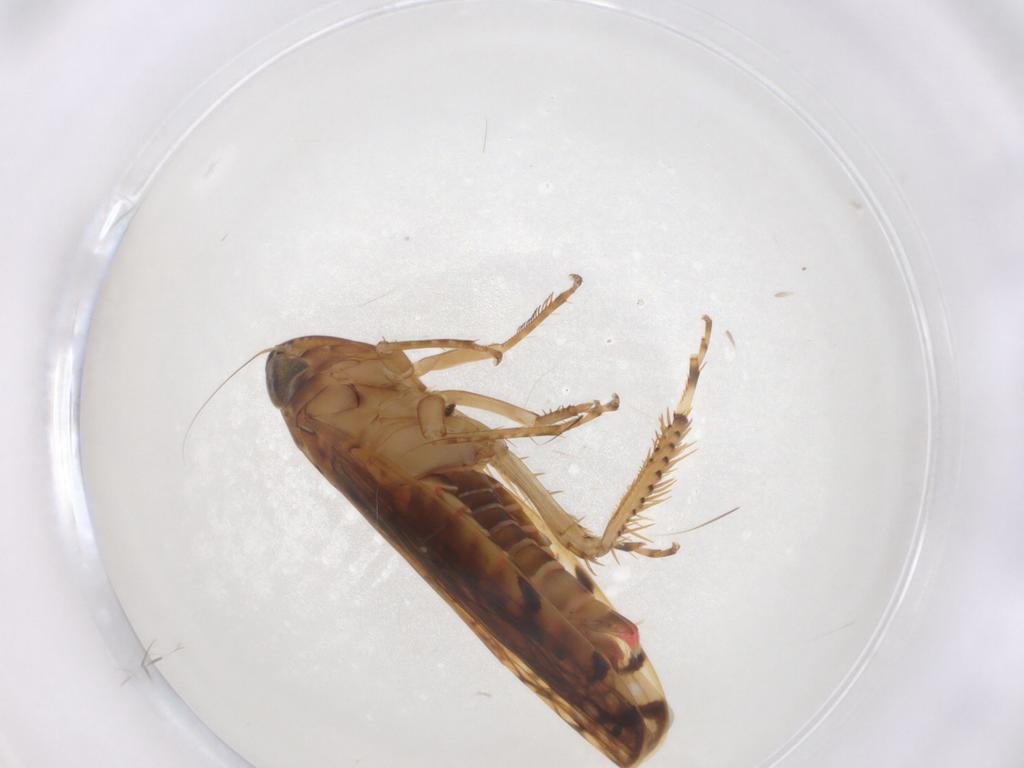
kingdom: Animalia
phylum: Arthropoda
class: Insecta
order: Hemiptera
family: Cicadellidae
